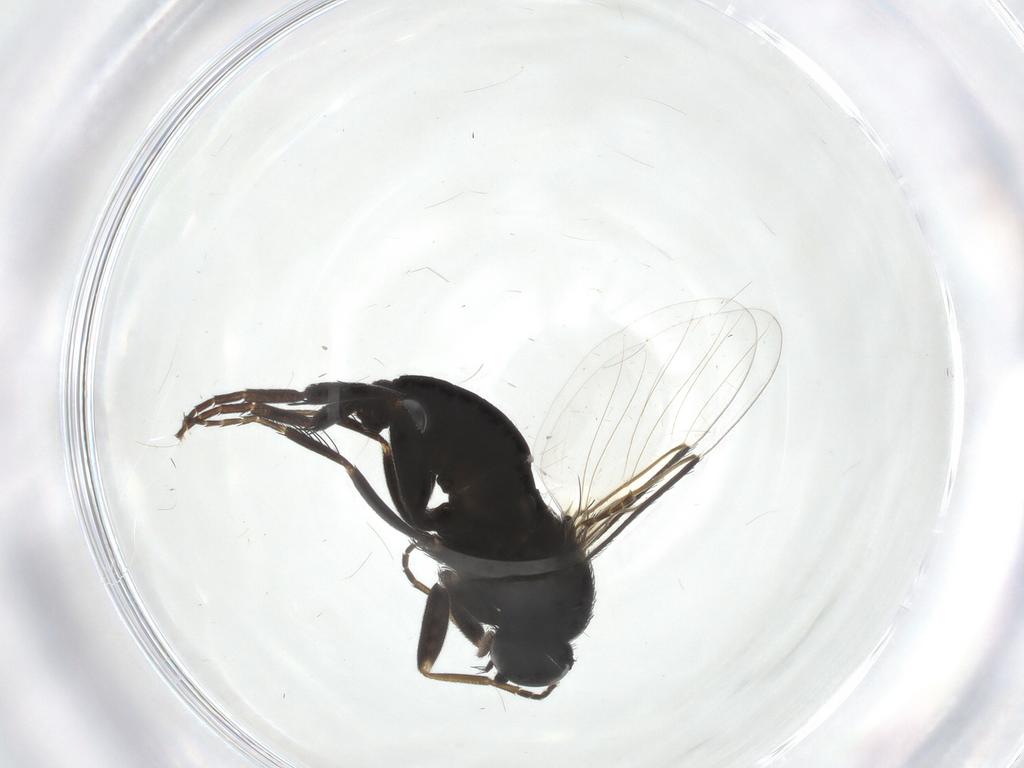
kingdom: Animalia
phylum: Arthropoda
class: Insecta
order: Diptera
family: Phoridae
